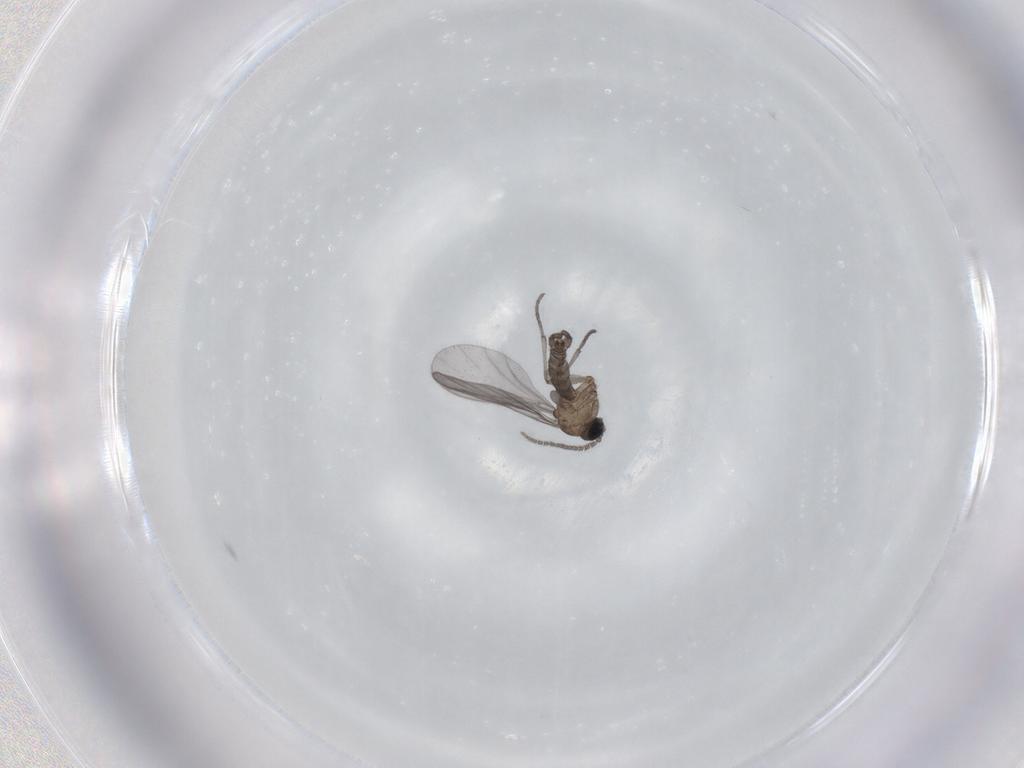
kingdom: Animalia
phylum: Arthropoda
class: Insecta
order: Diptera
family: Sciaridae
